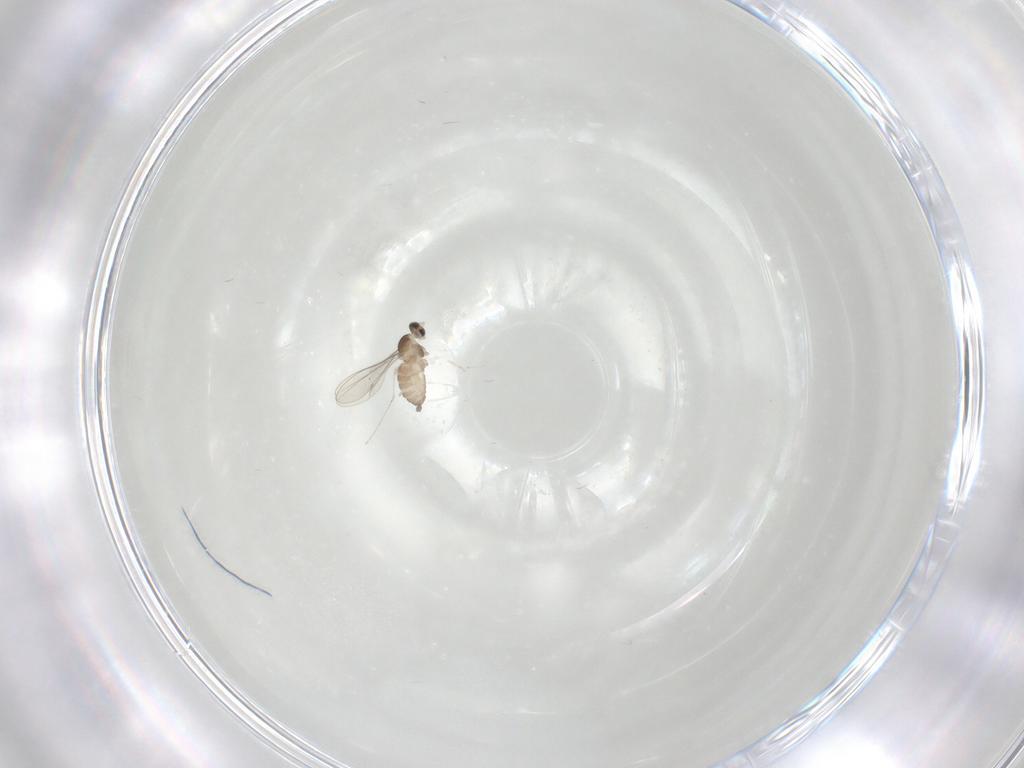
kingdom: Animalia
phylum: Arthropoda
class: Insecta
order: Diptera
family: Cecidomyiidae
